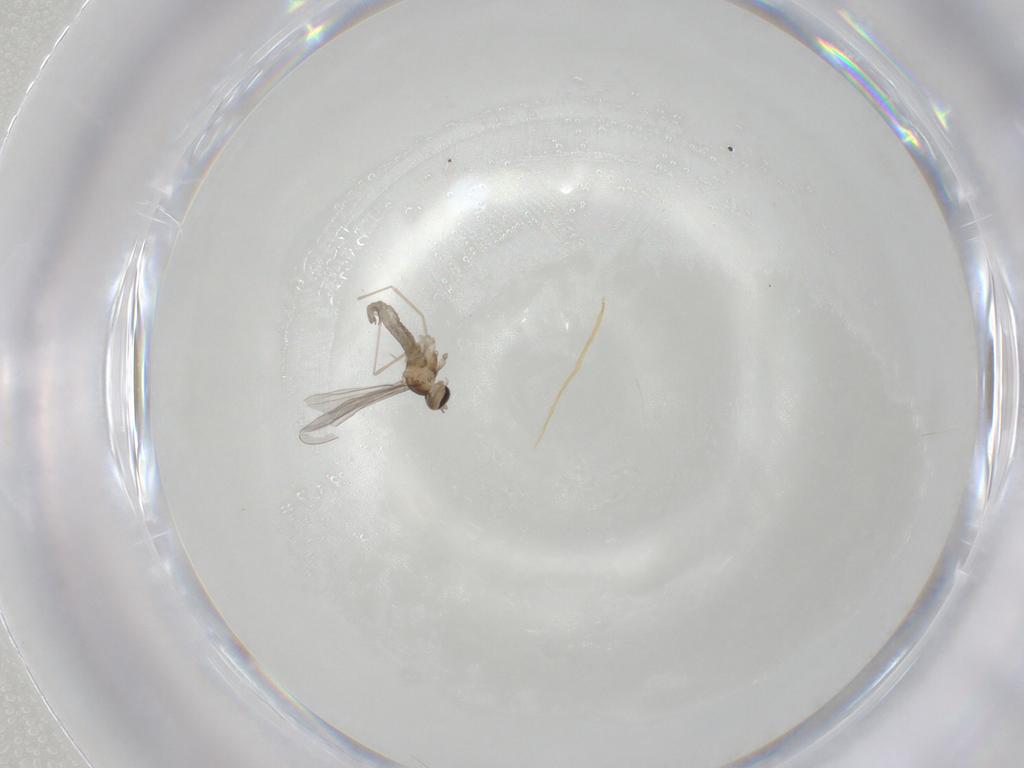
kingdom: Animalia
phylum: Arthropoda
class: Insecta
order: Diptera
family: Cecidomyiidae
